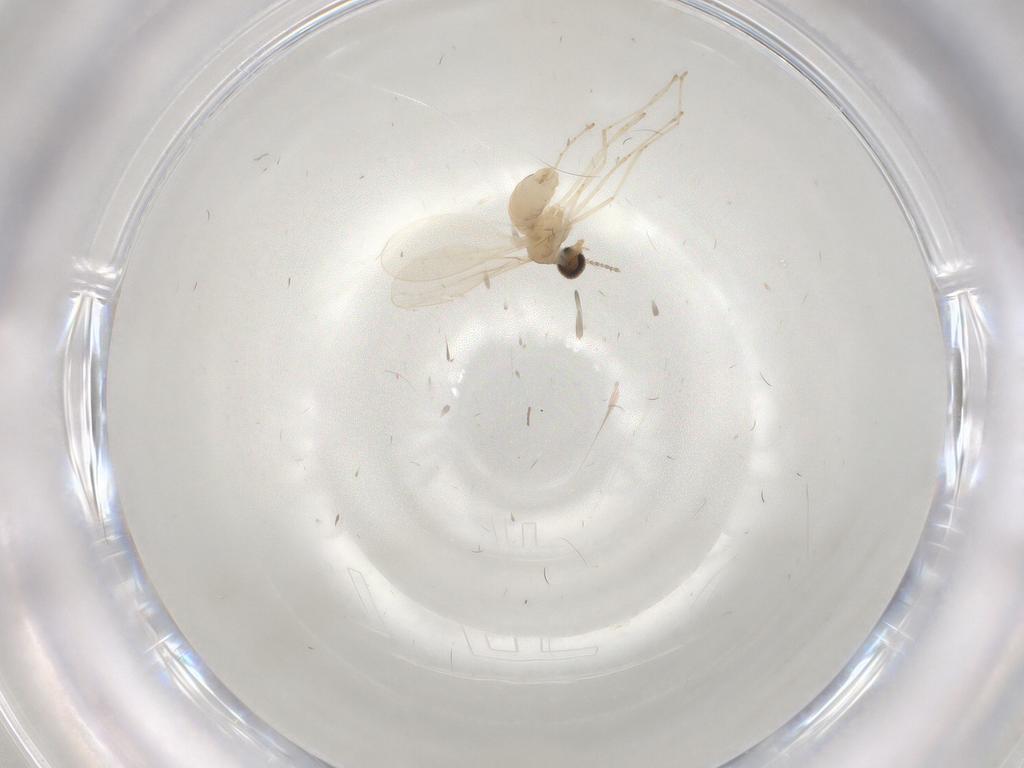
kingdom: Animalia
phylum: Arthropoda
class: Insecta
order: Diptera
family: Cecidomyiidae
